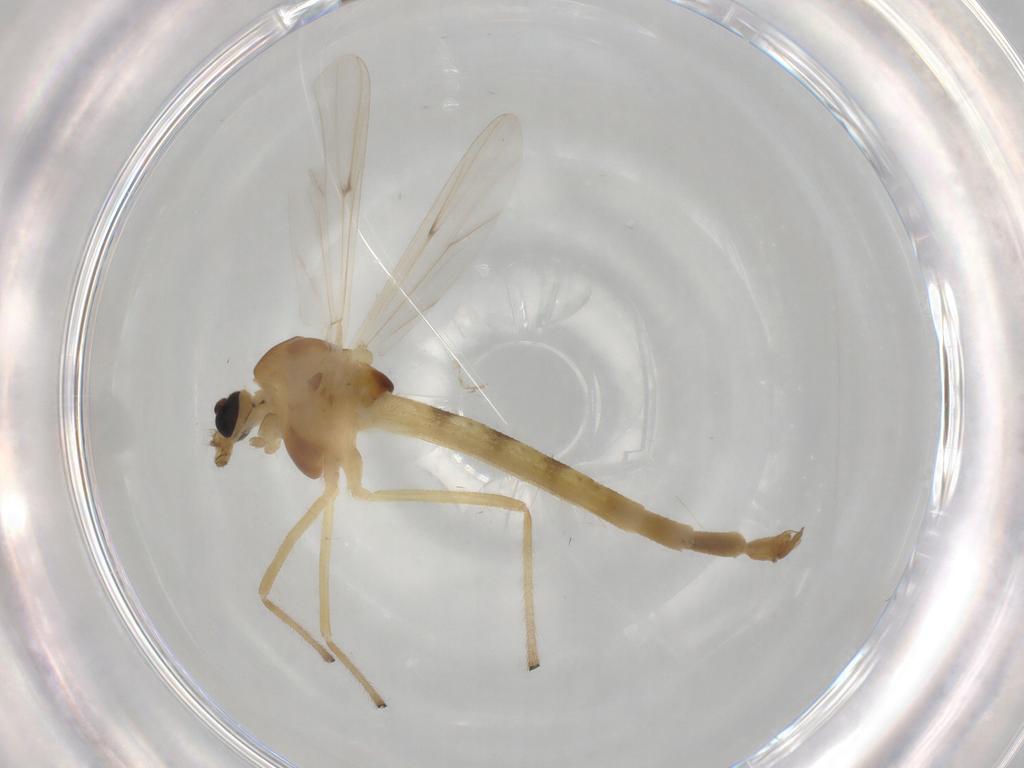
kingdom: Animalia
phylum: Arthropoda
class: Insecta
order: Diptera
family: Chironomidae
